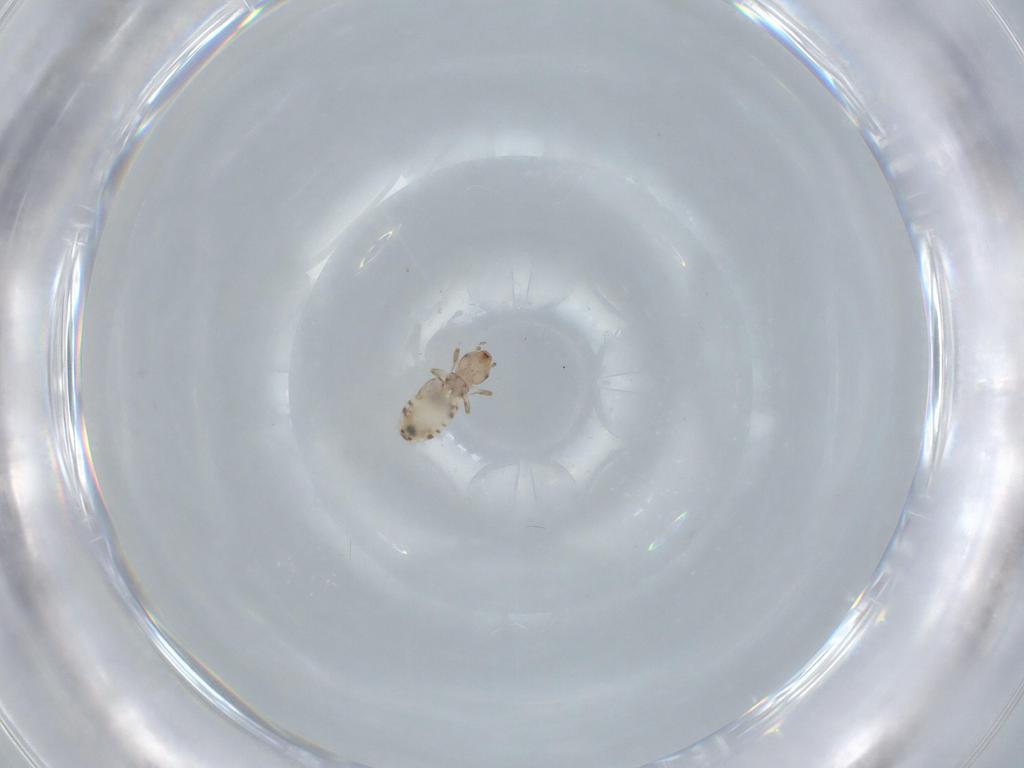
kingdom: Animalia
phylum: Arthropoda
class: Insecta
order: Psocodea
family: Liposcelididae
